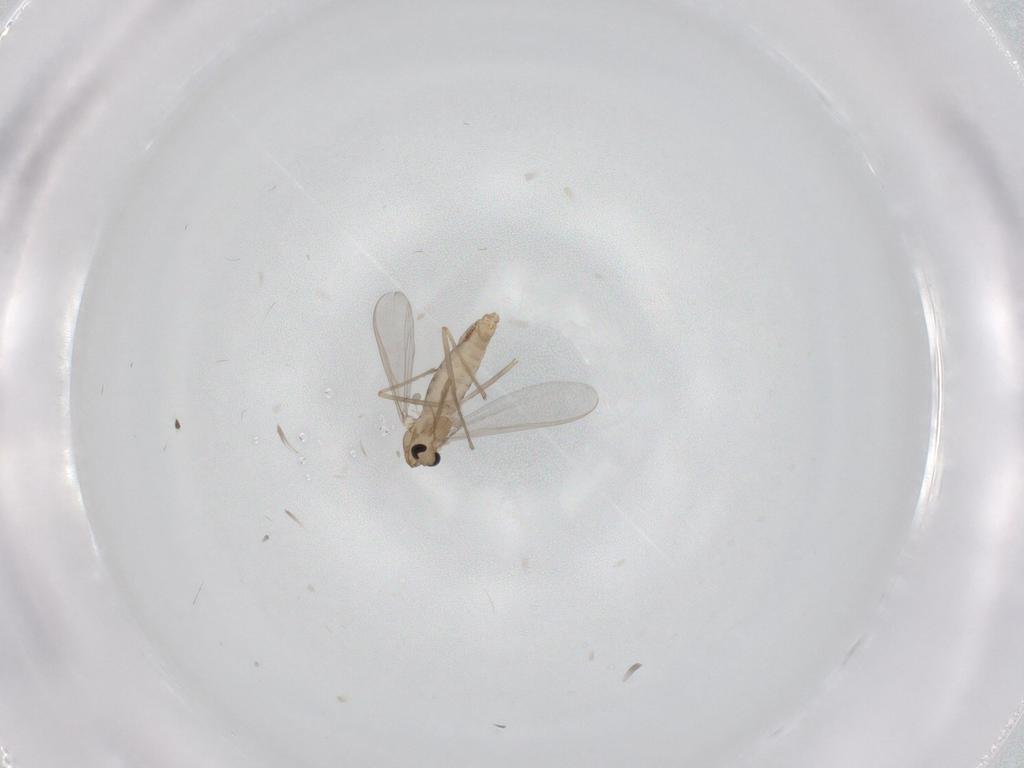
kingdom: Animalia
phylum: Arthropoda
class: Insecta
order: Diptera
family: Chironomidae
